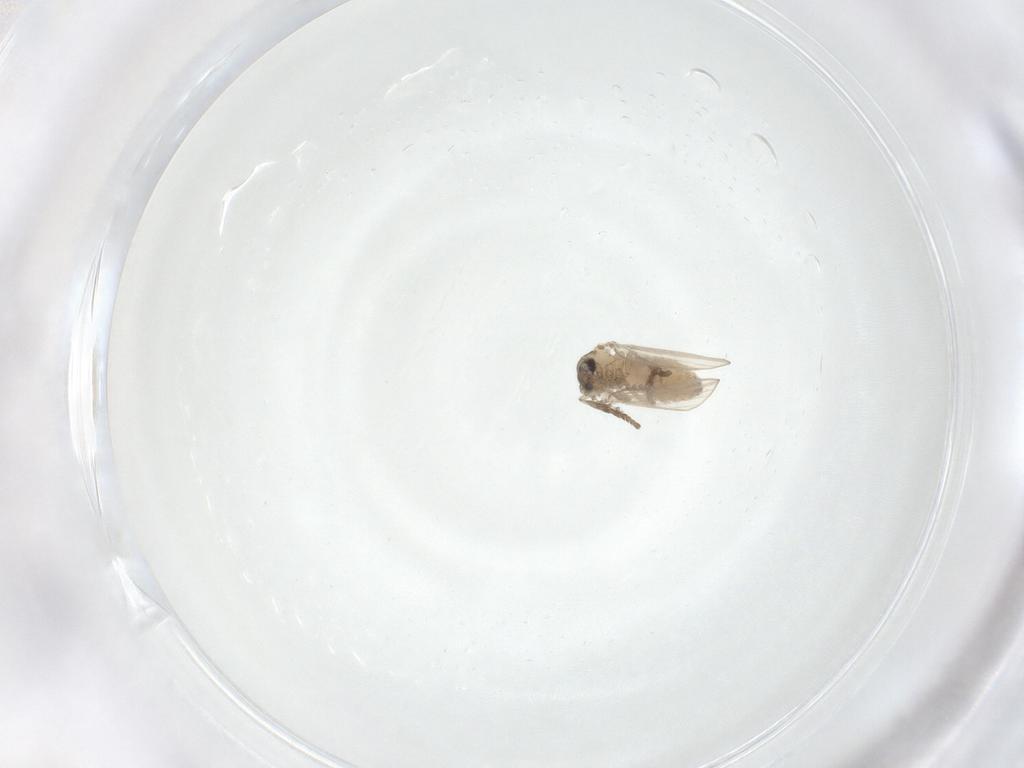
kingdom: Animalia
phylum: Arthropoda
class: Insecta
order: Diptera
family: Psychodidae
